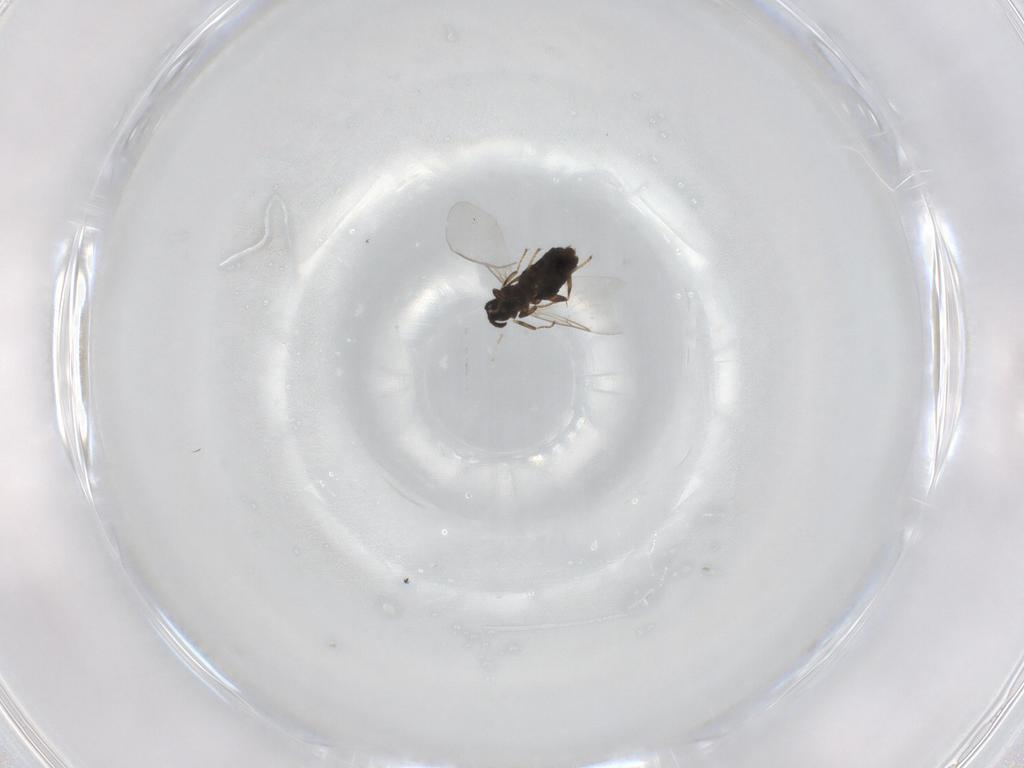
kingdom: Animalia
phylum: Arthropoda
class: Insecta
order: Diptera
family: Scatopsidae
